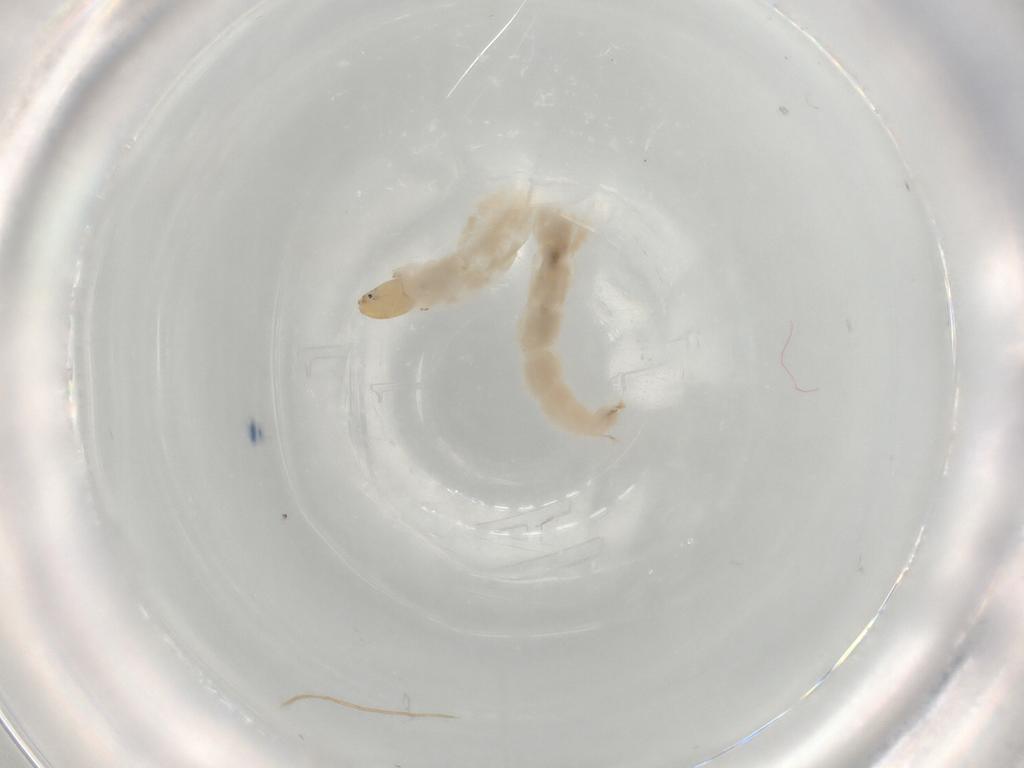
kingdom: Animalia
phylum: Arthropoda
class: Insecta
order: Diptera
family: Chironomidae
